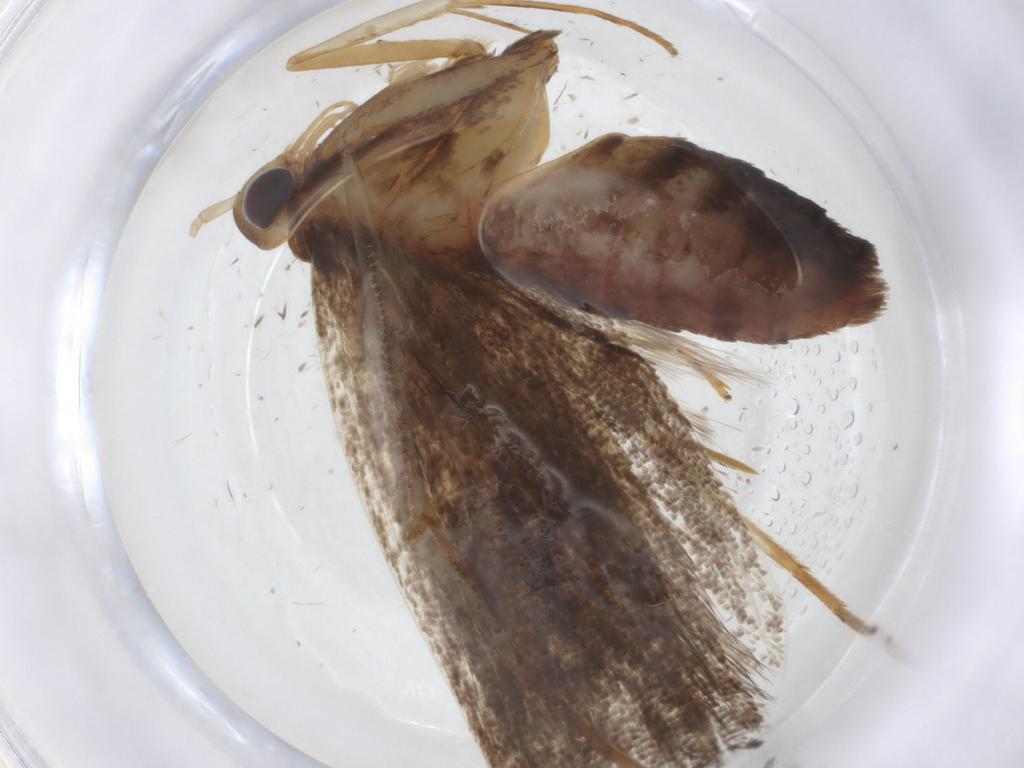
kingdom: Animalia
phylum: Arthropoda
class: Insecta
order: Lepidoptera
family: Lecithoceridae
